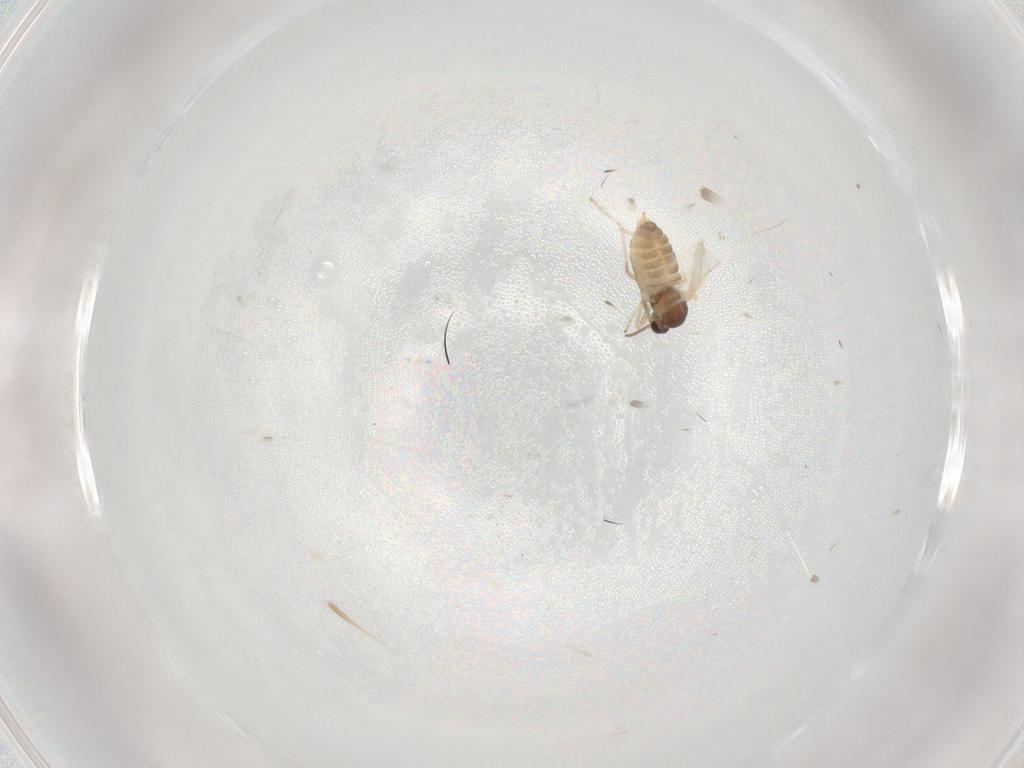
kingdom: Animalia
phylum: Arthropoda
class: Insecta
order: Diptera
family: Cecidomyiidae
